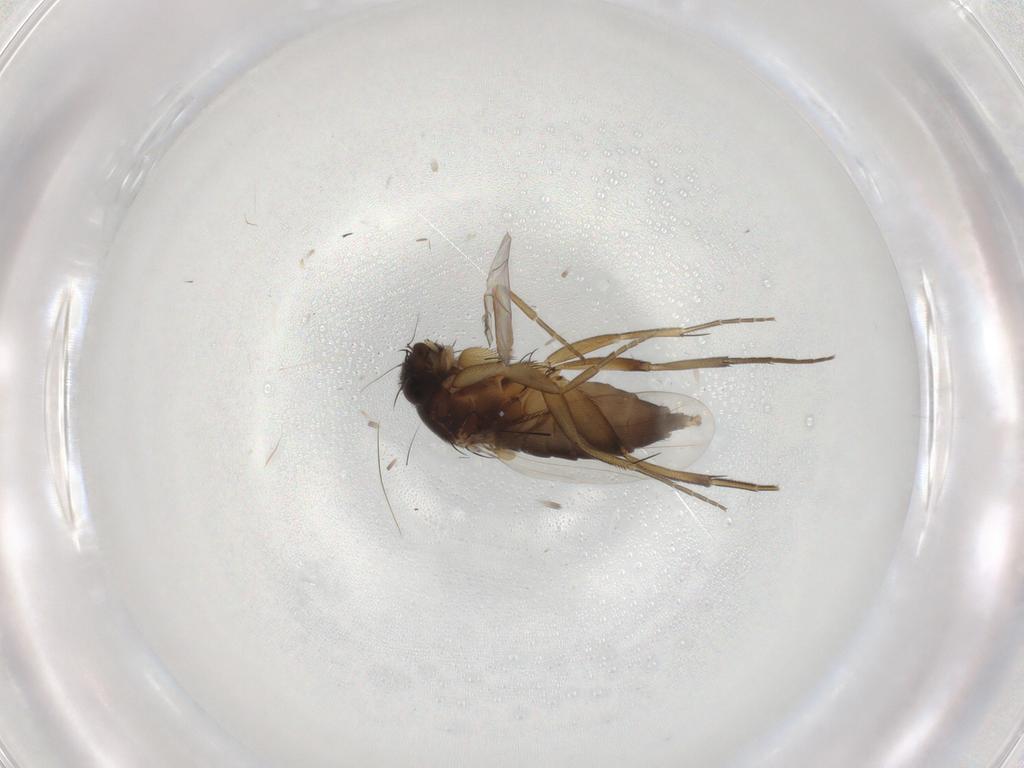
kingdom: Animalia
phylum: Arthropoda
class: Insecta
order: Diptera
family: Phoridae
